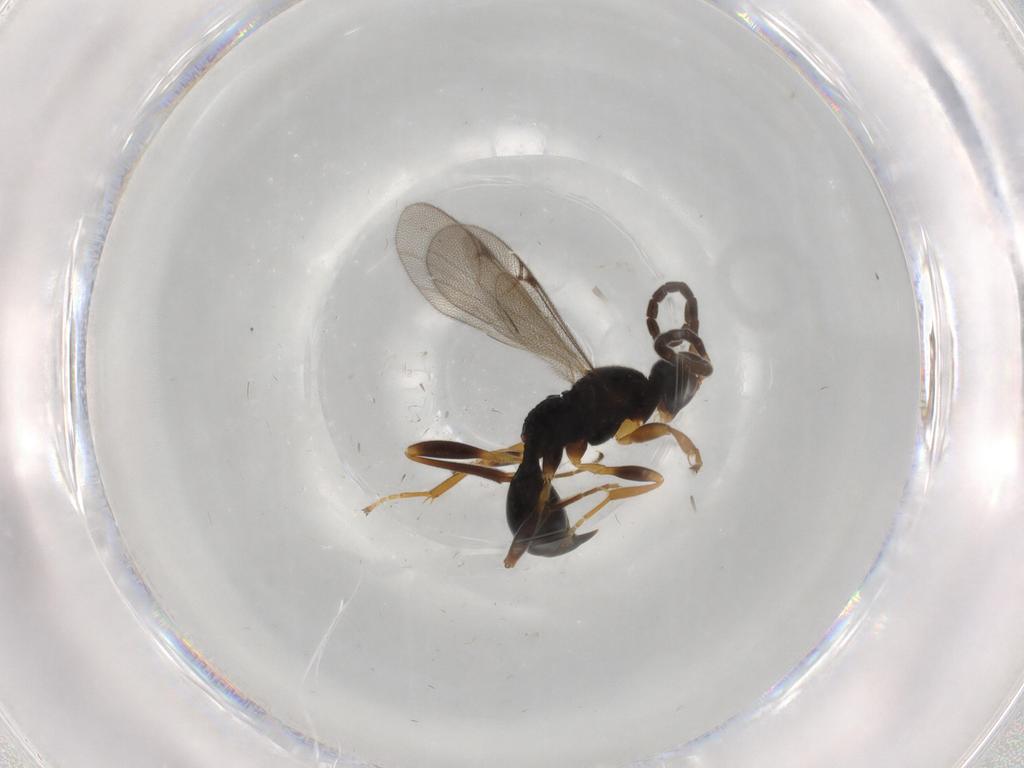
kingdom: Animalia
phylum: Arthropoda
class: Insecta
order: Hymenoptera
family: Proctotrupidae
